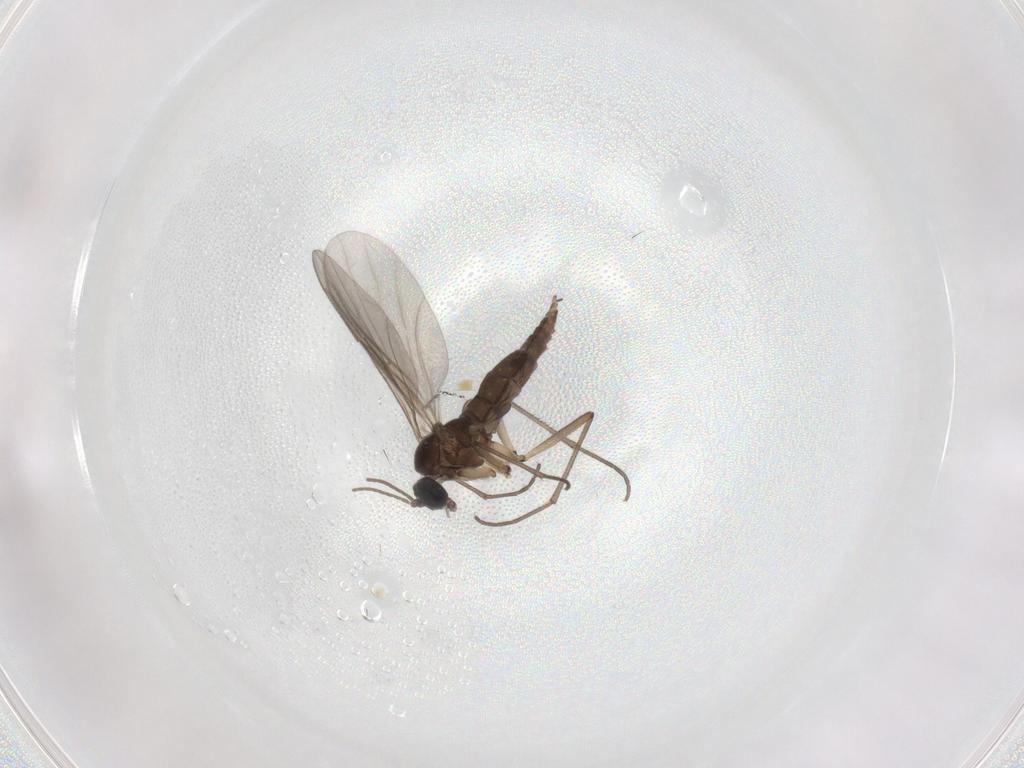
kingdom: Animalia
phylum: Arthropoda
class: Insecta
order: Diptera
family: Sciaridae
